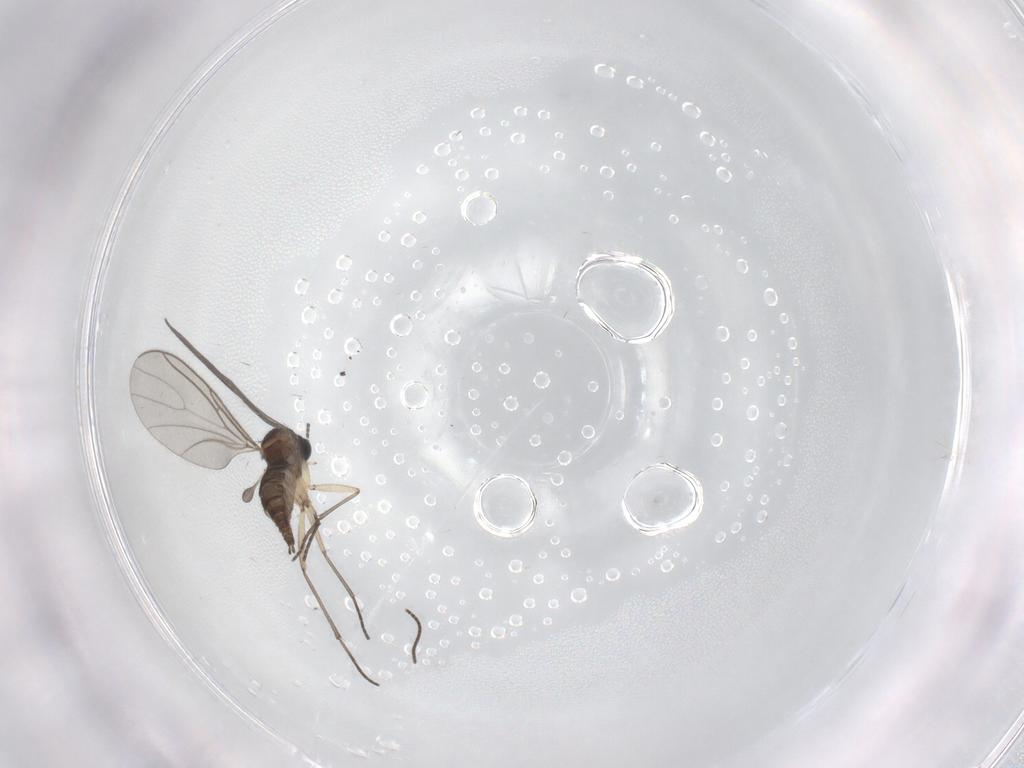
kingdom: Animalia
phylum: Arthropoda
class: Insecta
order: Diptera
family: Sciaridae
